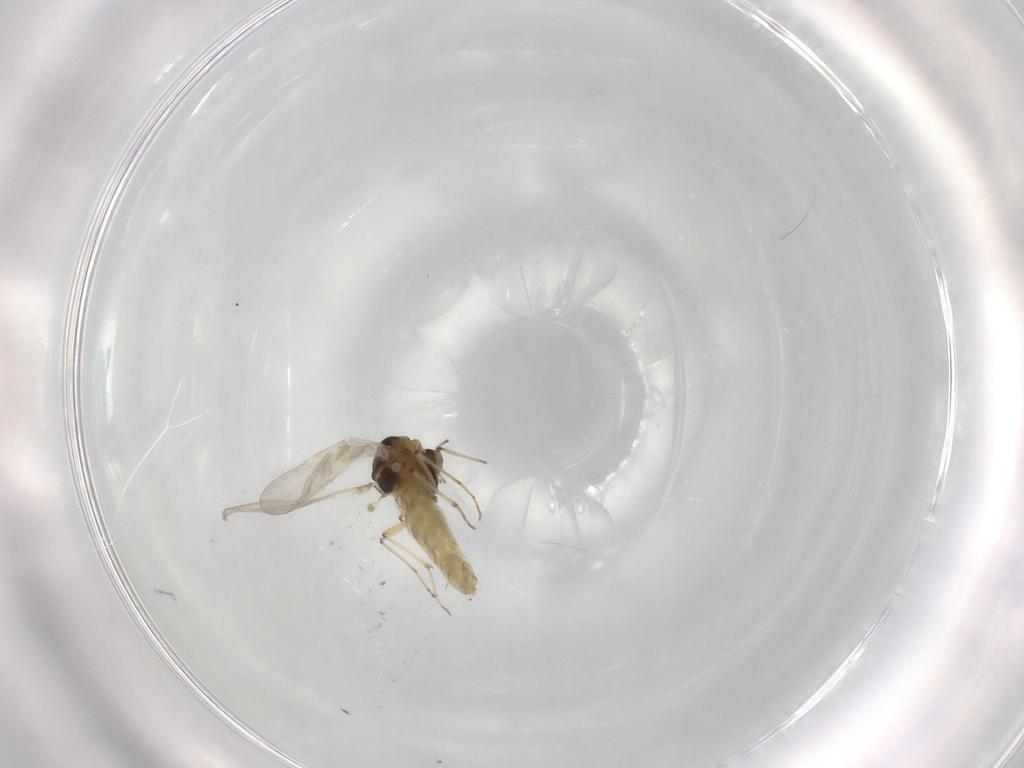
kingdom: Animalia
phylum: Arthropoda
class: Insecta
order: Diptera
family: Chironomidae
